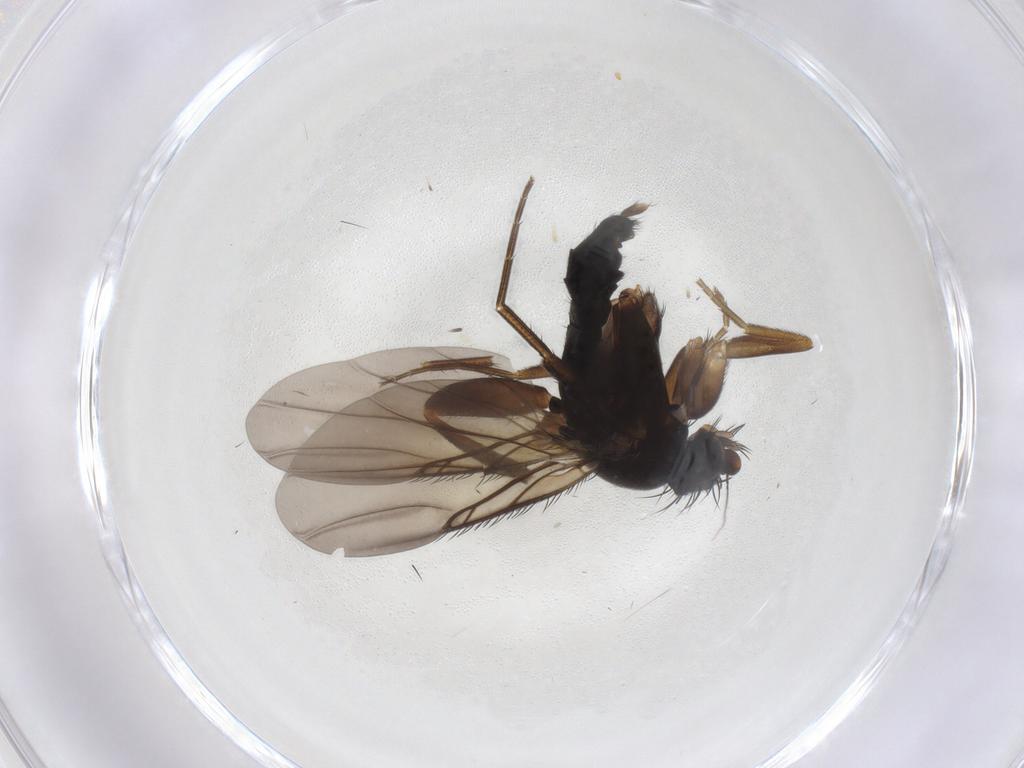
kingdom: Animalia
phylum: Arthropoda
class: Insecta
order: Diptera
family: Phoridae
